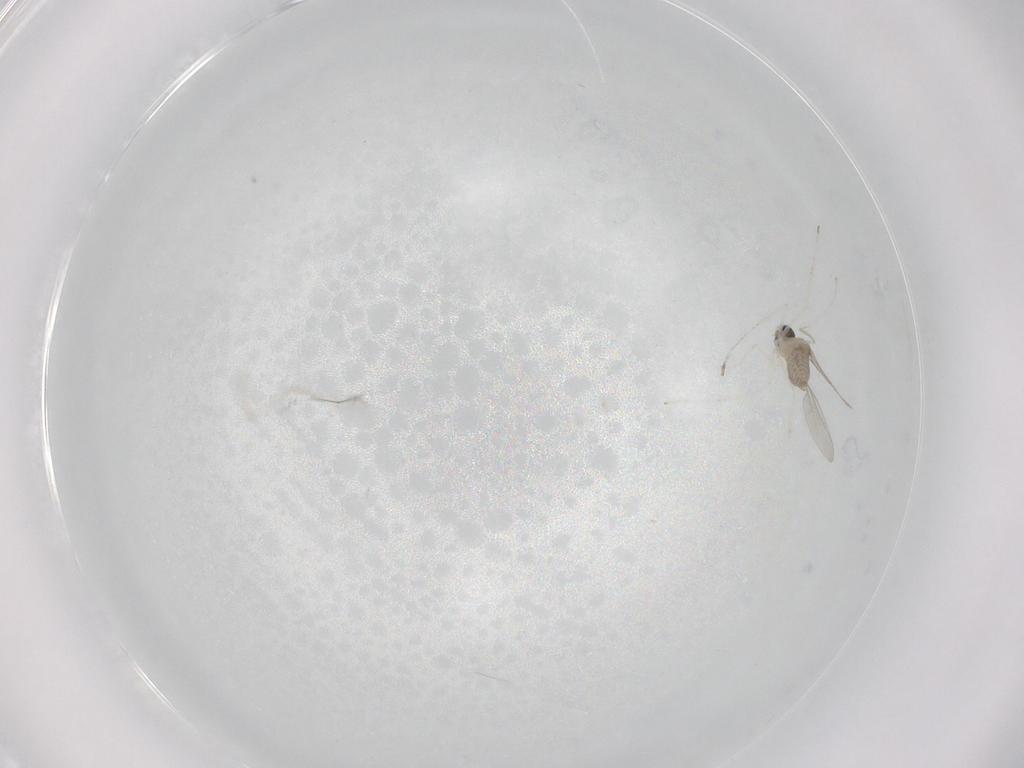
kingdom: Animalia
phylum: Arthropoda
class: Insecta
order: Diptera
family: Cecidomyiidae
